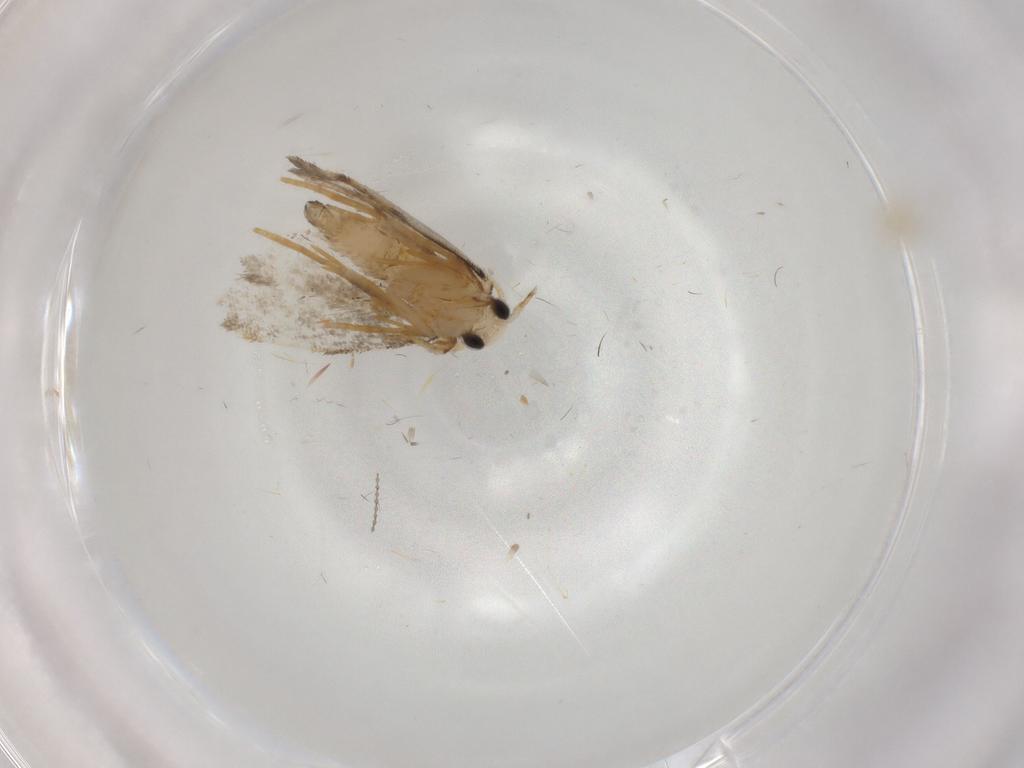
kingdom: Animalia
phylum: Arthropoda
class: Insecta
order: Lepidoptera
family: Psychidae
